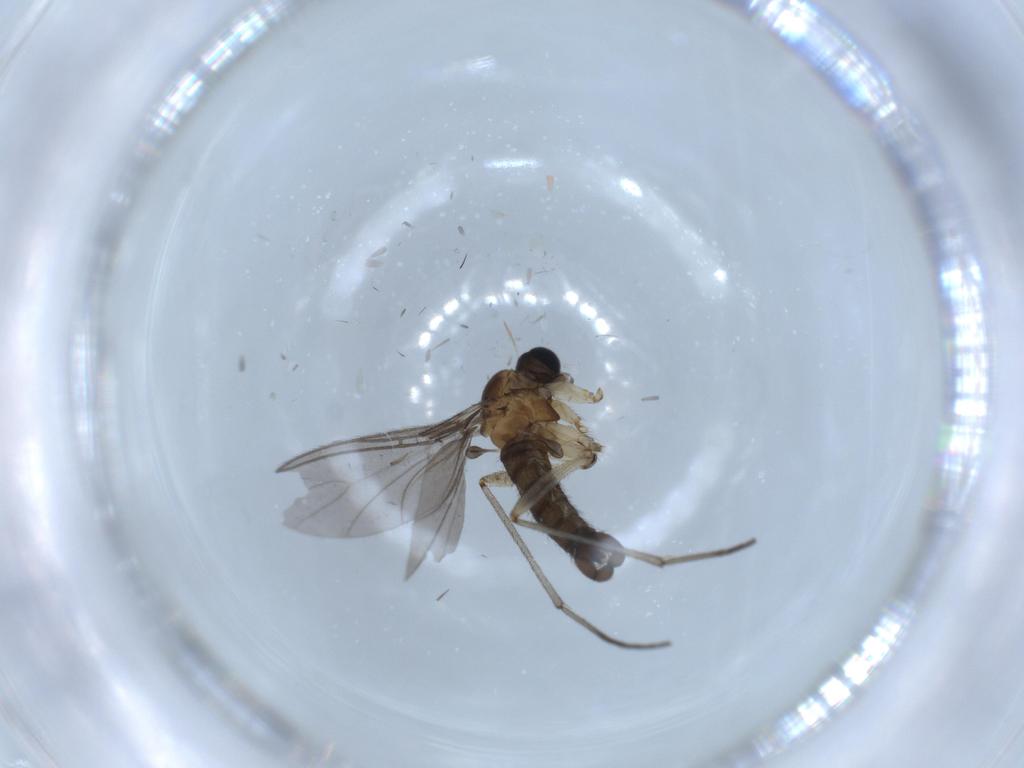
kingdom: Animalia
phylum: Arthropoda
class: Insecta
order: Diptera
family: Sciaridae
